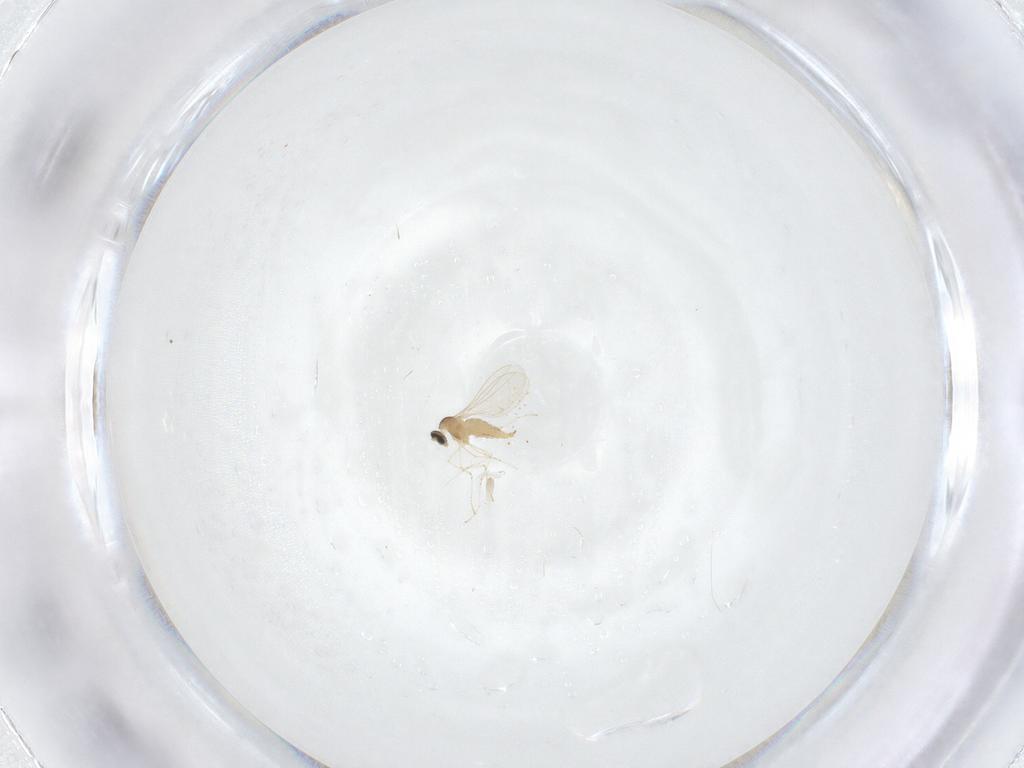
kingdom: Animalia
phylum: Arthropoda
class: Insecta
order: Diptera
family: Cecidomyiidae
